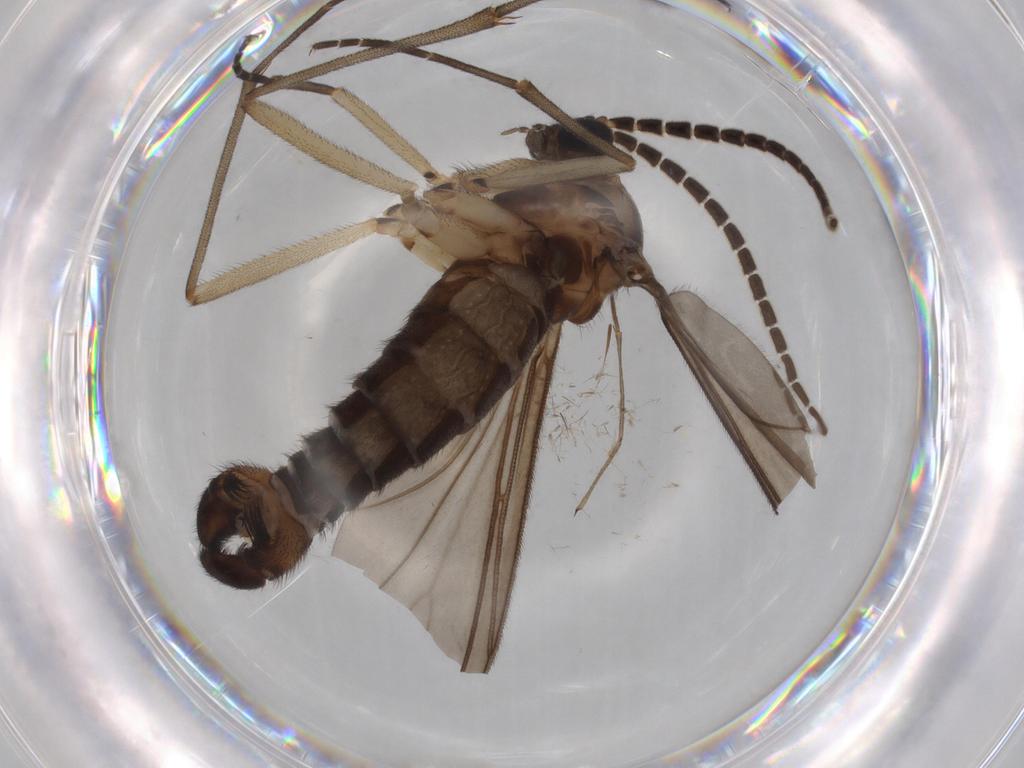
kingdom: Animalia
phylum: Arthropoda
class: Insecta
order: Diptera
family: Phoridae
